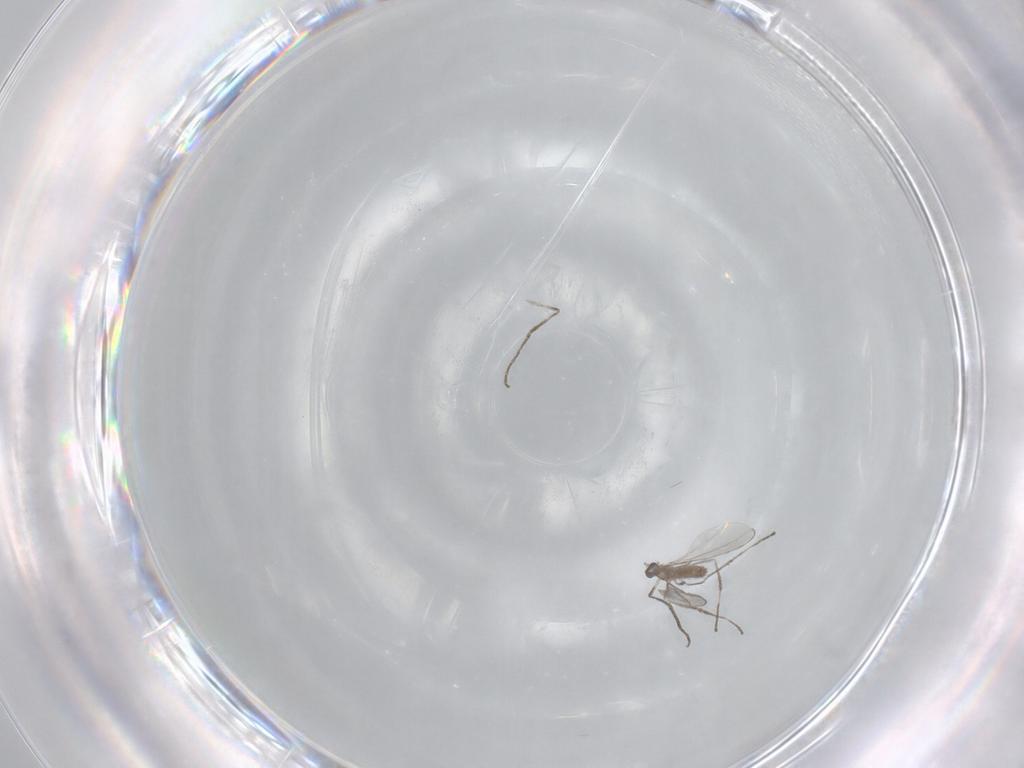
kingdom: Animalia
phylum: Arthropoda
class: Insecta
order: Diptera
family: Cecidomyiidae
